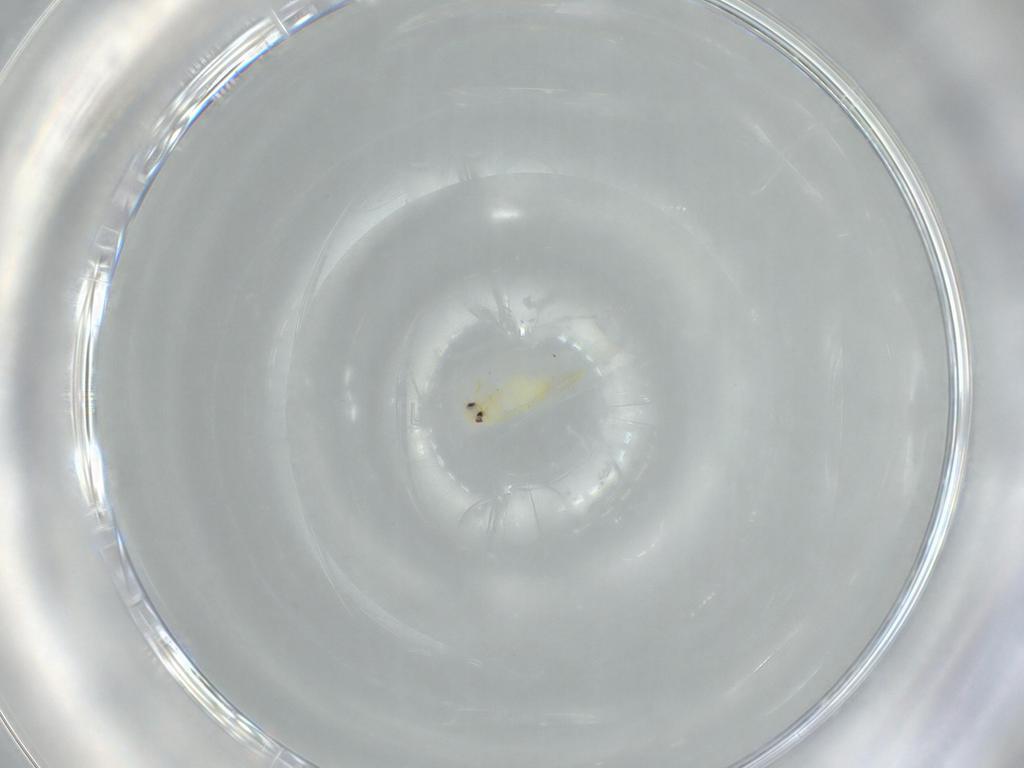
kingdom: Animalia
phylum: Arthropoda
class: Insecta
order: Hemiptera
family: Aleyrodidae
